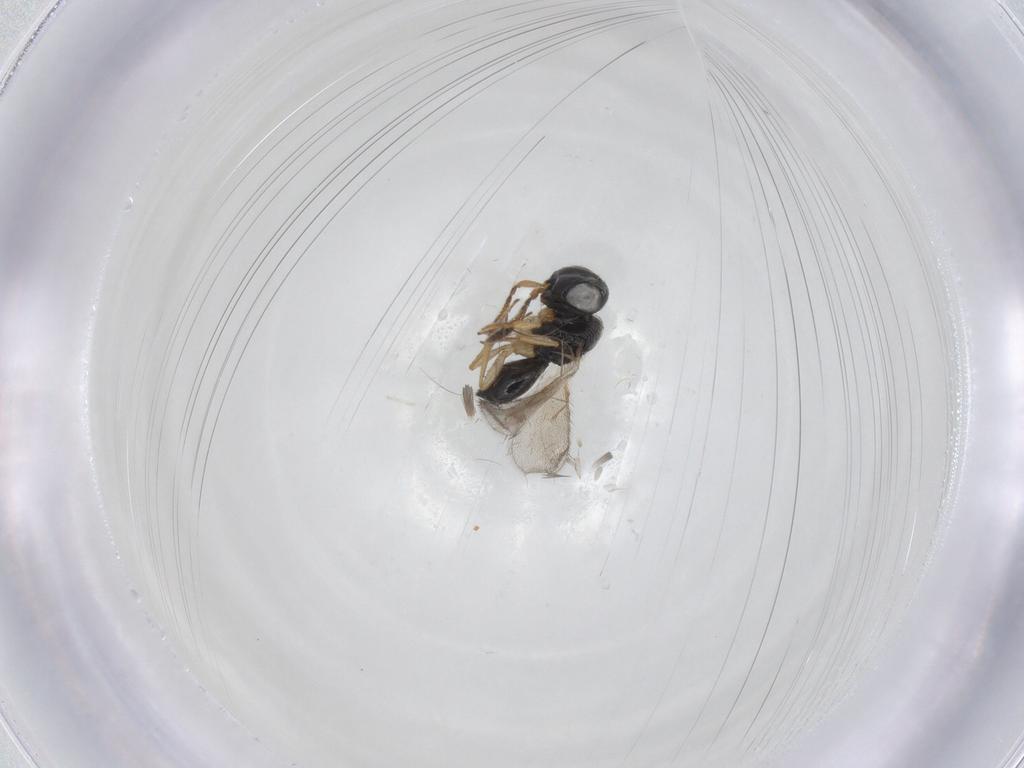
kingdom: Animalia
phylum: Arthropoda
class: Insecta
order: Hymenoptera
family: Scelionidae
